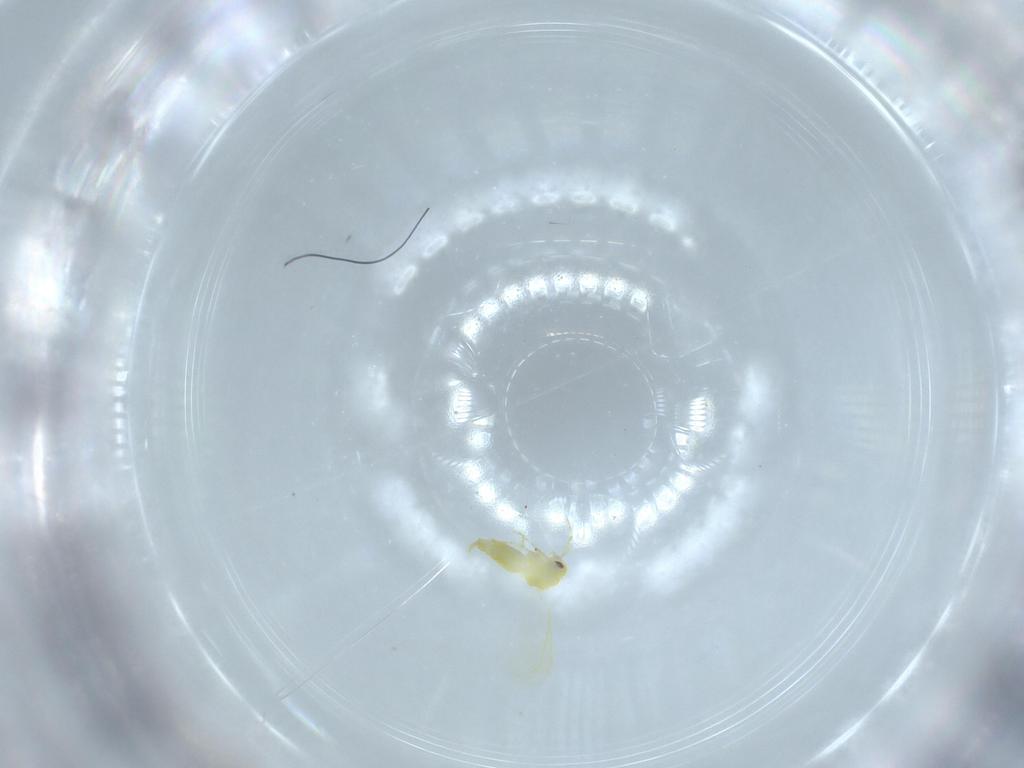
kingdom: Animalia
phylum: Arthropoda
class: Insecta
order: Hemiptera
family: Aleyrodidae
